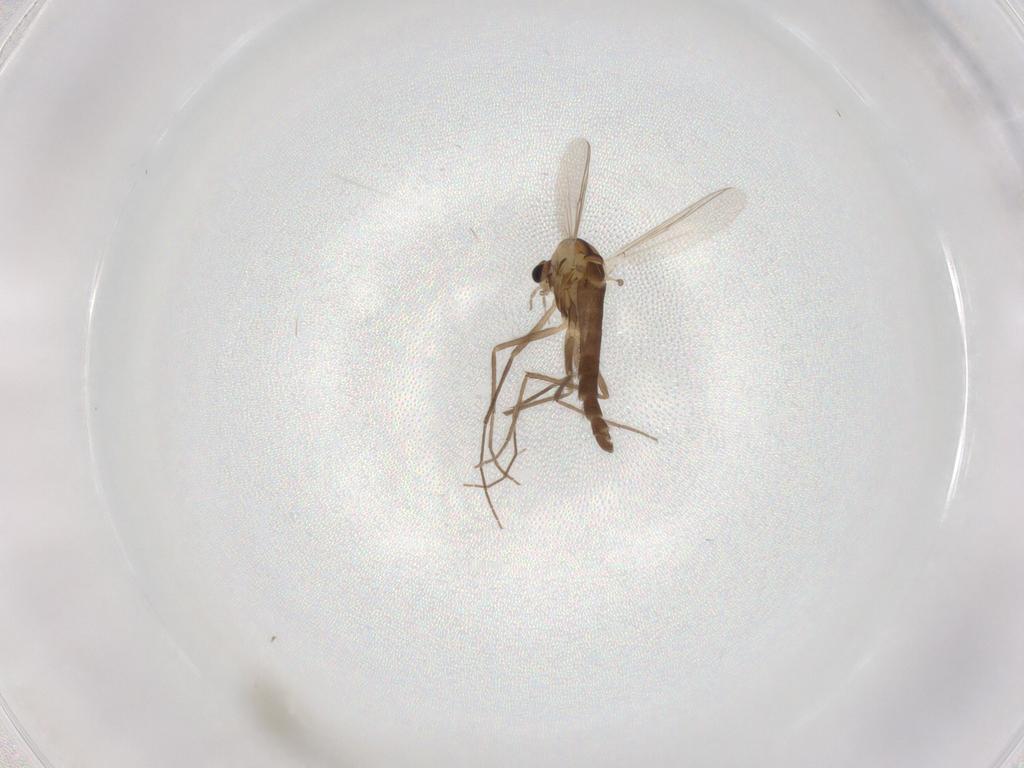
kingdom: Animalia
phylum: Arthropoda
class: Insecta
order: Diptera
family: Chironomidae
